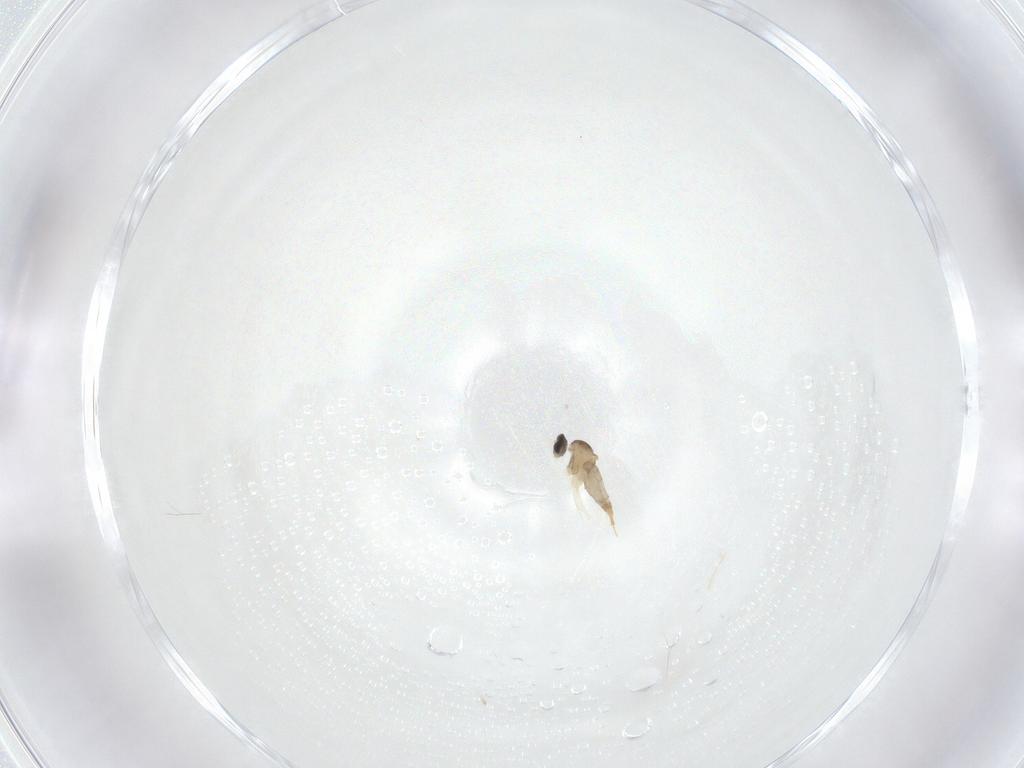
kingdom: Animalia
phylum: Arthropoda
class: Insecta
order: Diptera
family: Cecidomyiidae
